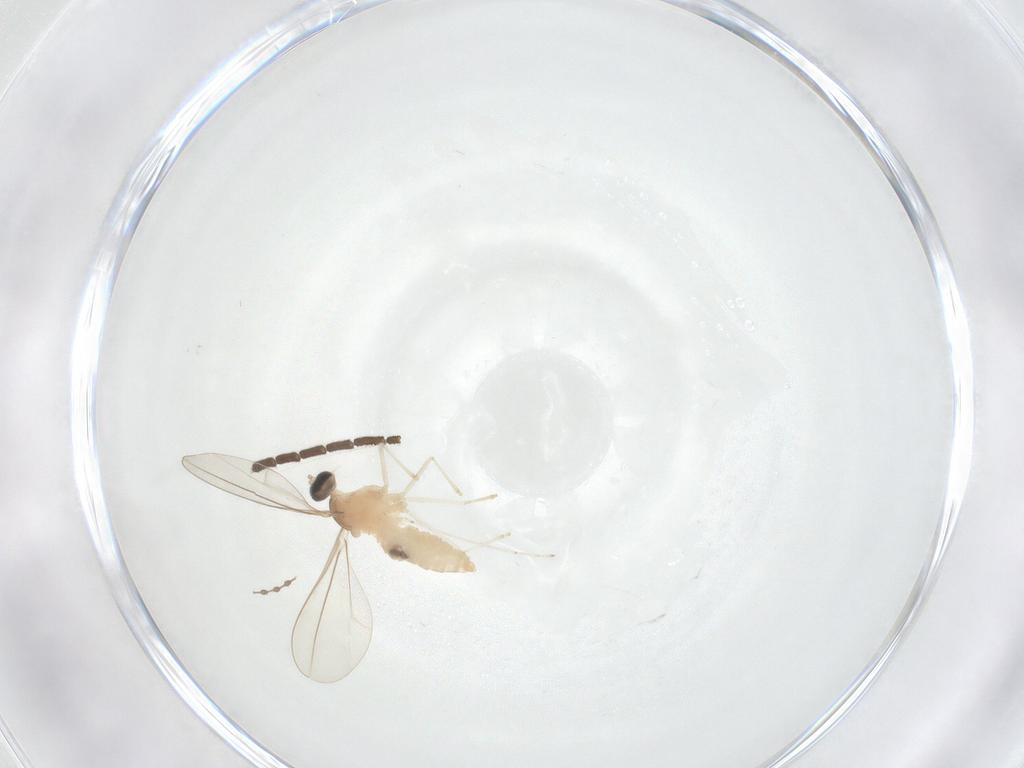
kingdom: Animalia
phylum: Arthropoda
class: Insecta
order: Diptera
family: Cecidomyiidae
